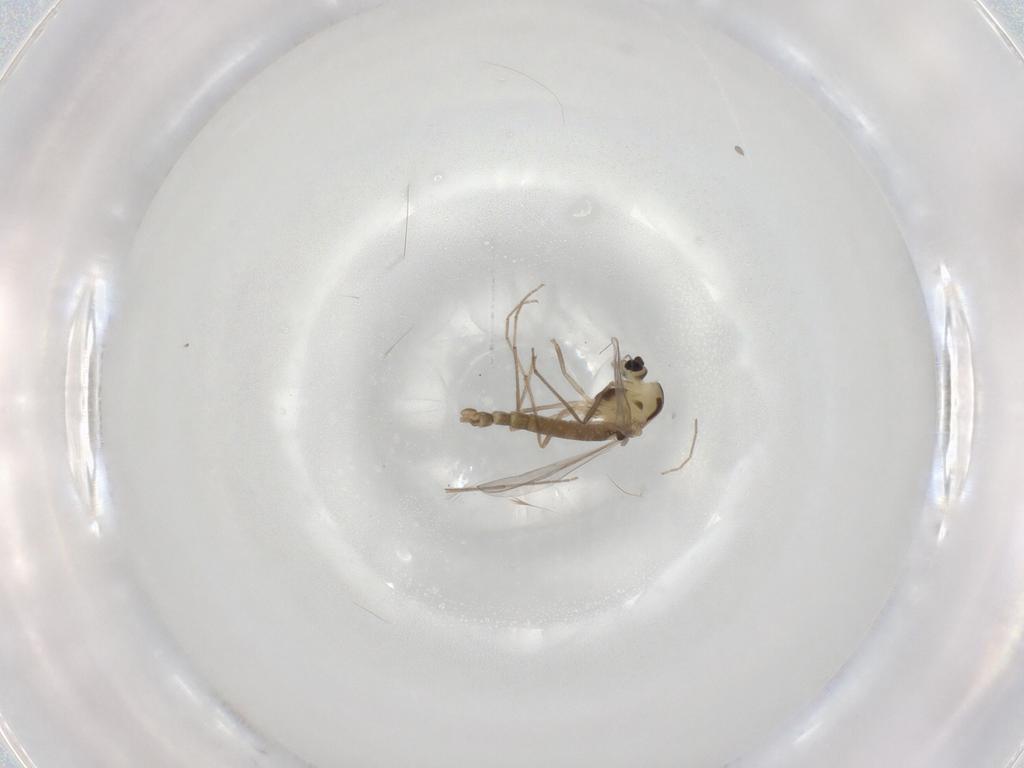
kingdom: Animalia
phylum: Arthropoda
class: Insecta
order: Diptera
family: Chironomidae
